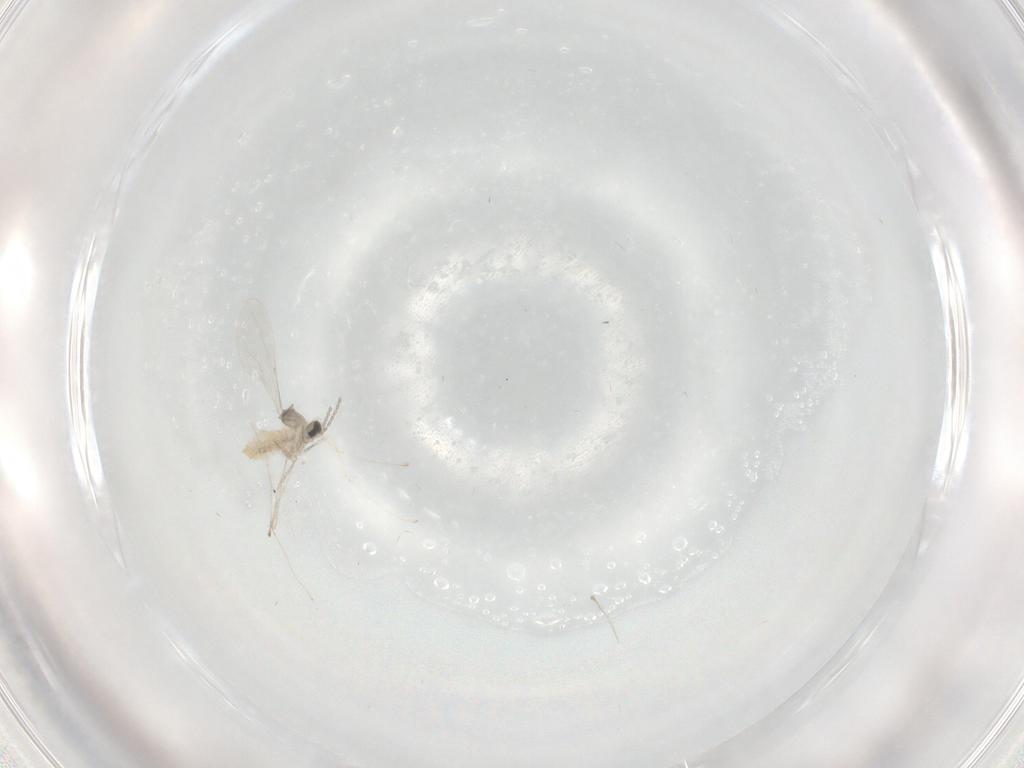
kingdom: Animalia
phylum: Arthropoda
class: Insecta
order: Diptera
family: Cecidomyiidae
